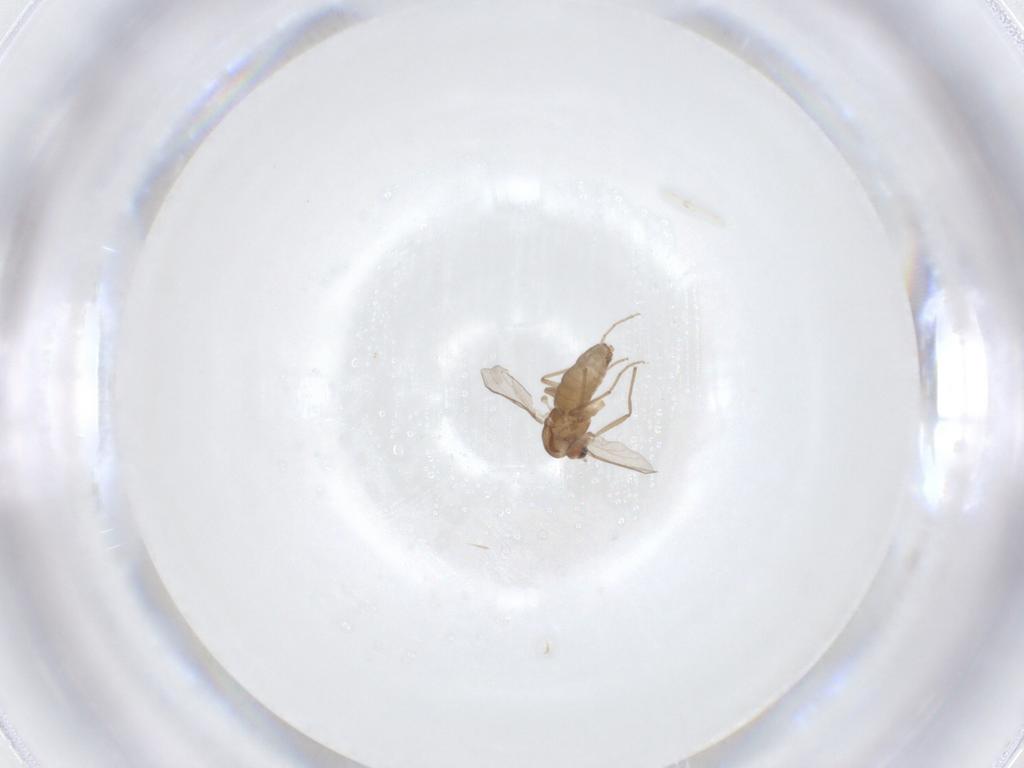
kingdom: Animalia
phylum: Arthropoda
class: Insecta
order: Diptera
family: Chironomidae
